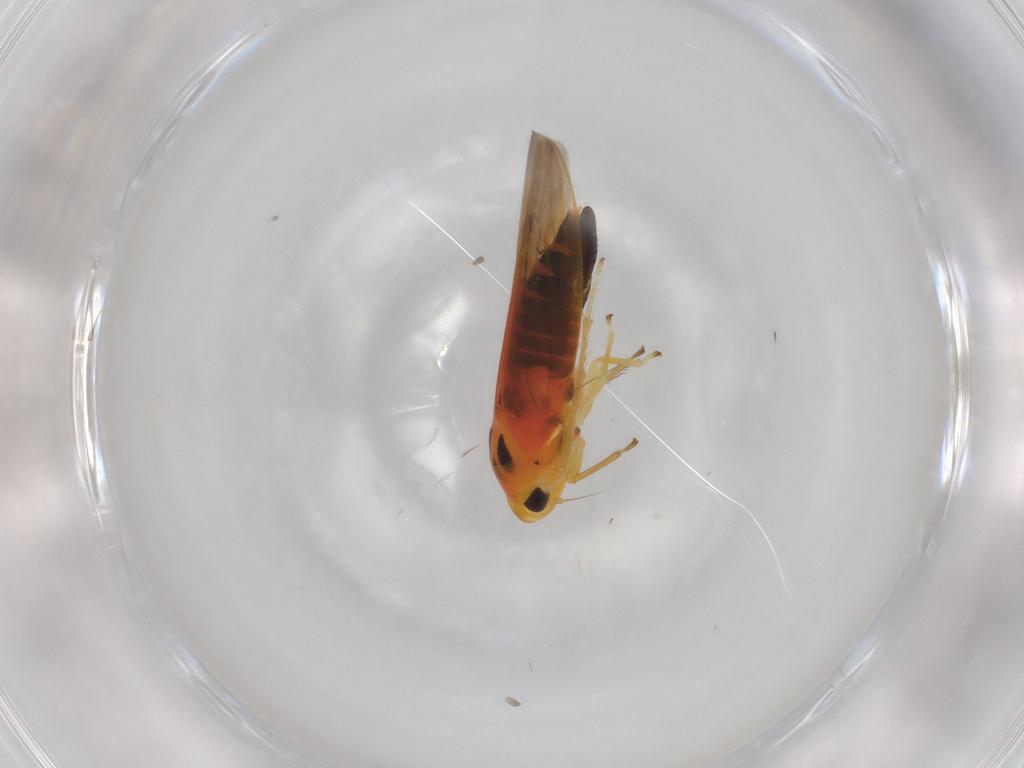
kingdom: Animalia
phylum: Arthropoda
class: Insecta
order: Hemiptera
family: Cicadellidae
